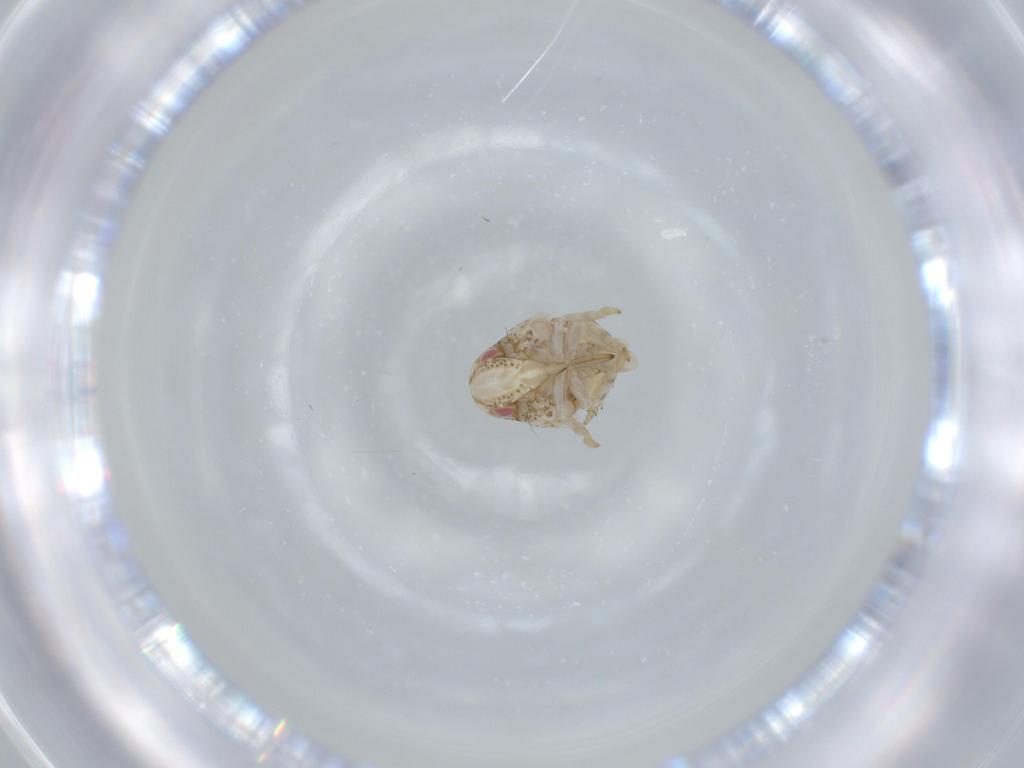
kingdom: Animalia
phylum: Arthropoda
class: Insecta
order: Hemiptera
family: Acanaloniidae
